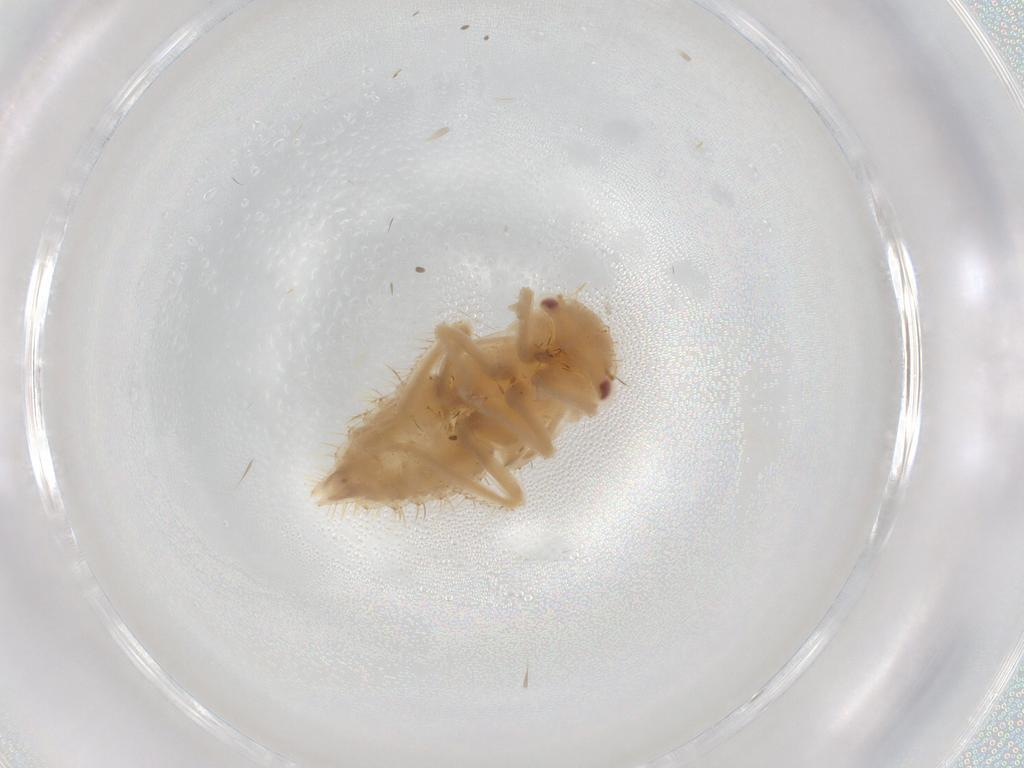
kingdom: Animalia
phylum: Arthropoda
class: Insecta
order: Hemiptera
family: Cicadellidae
